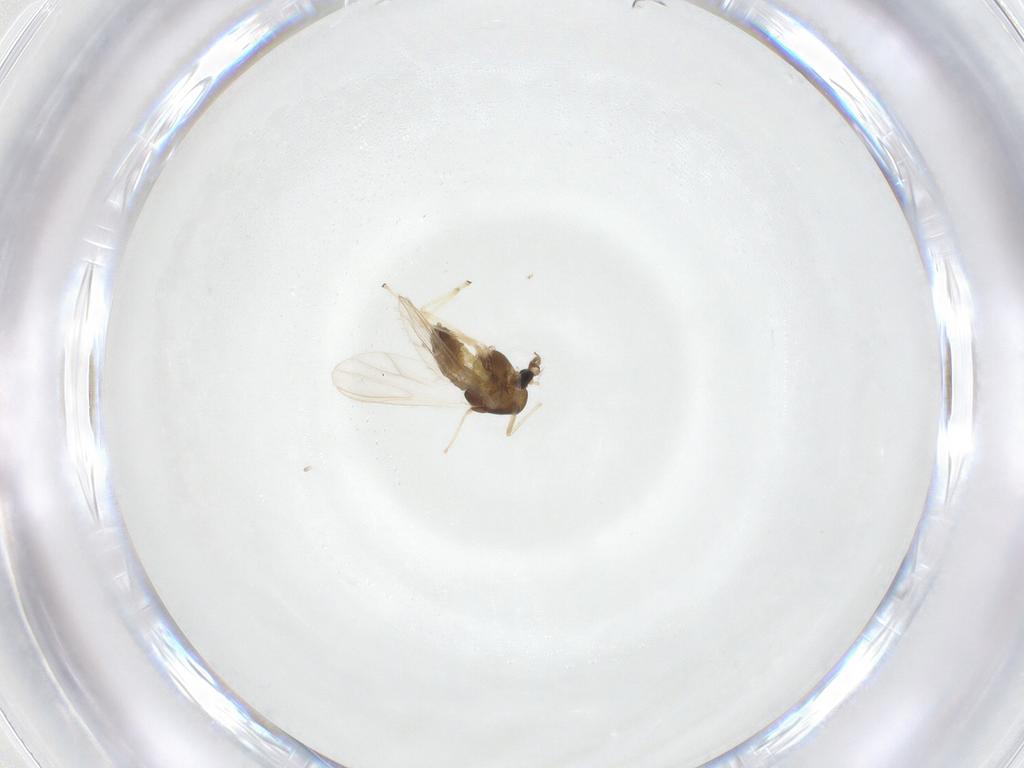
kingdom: Animalia
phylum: Arthropoda
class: Insecta
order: Diptera
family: Chironomidae
